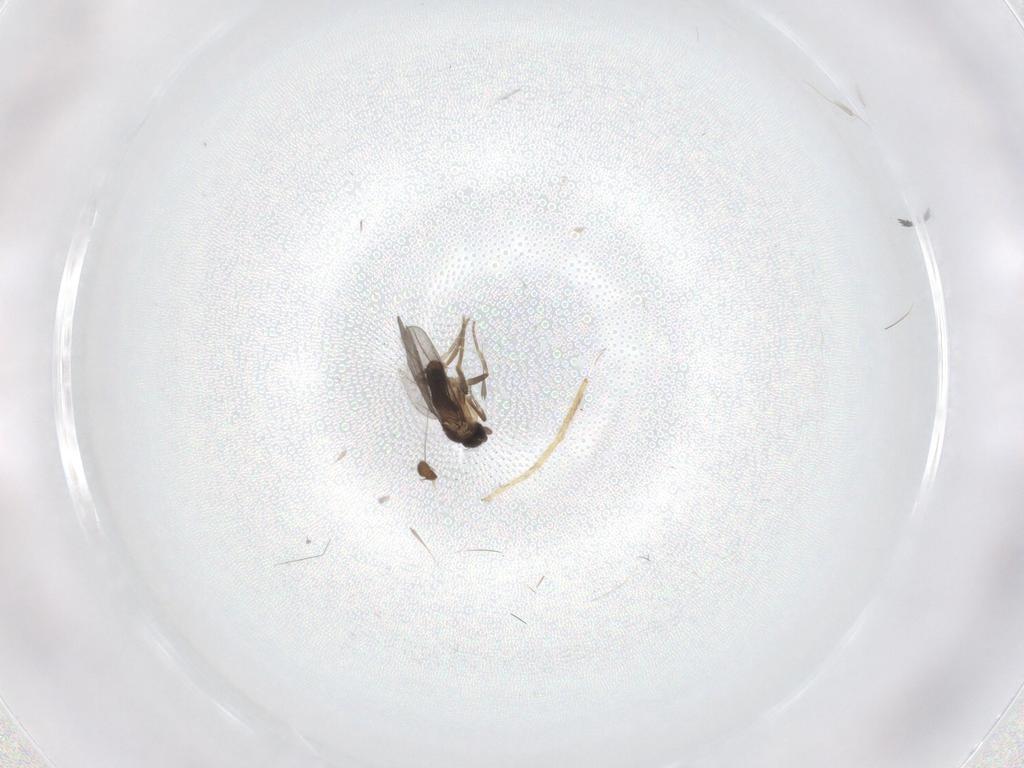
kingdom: Animalia
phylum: Arthropoda
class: Insecta
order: Diptera
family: Sphaeroceridae
